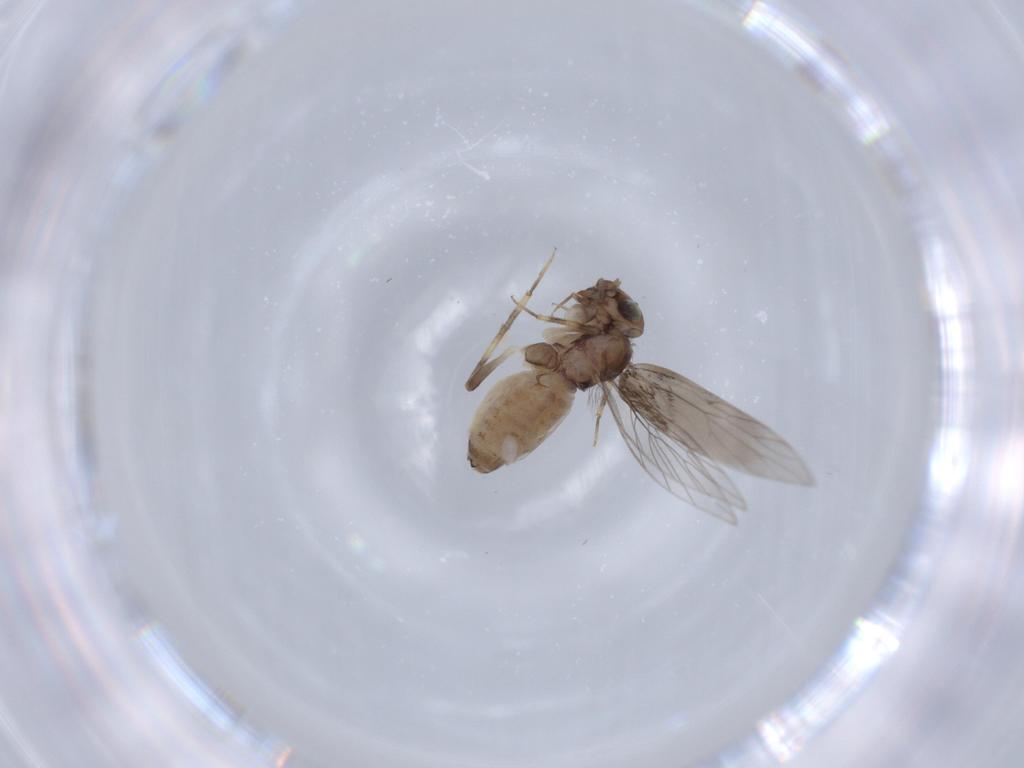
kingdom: Animalia
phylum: Arthropoda
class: Insecta
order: Psocodea
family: Lepidopsocidae
